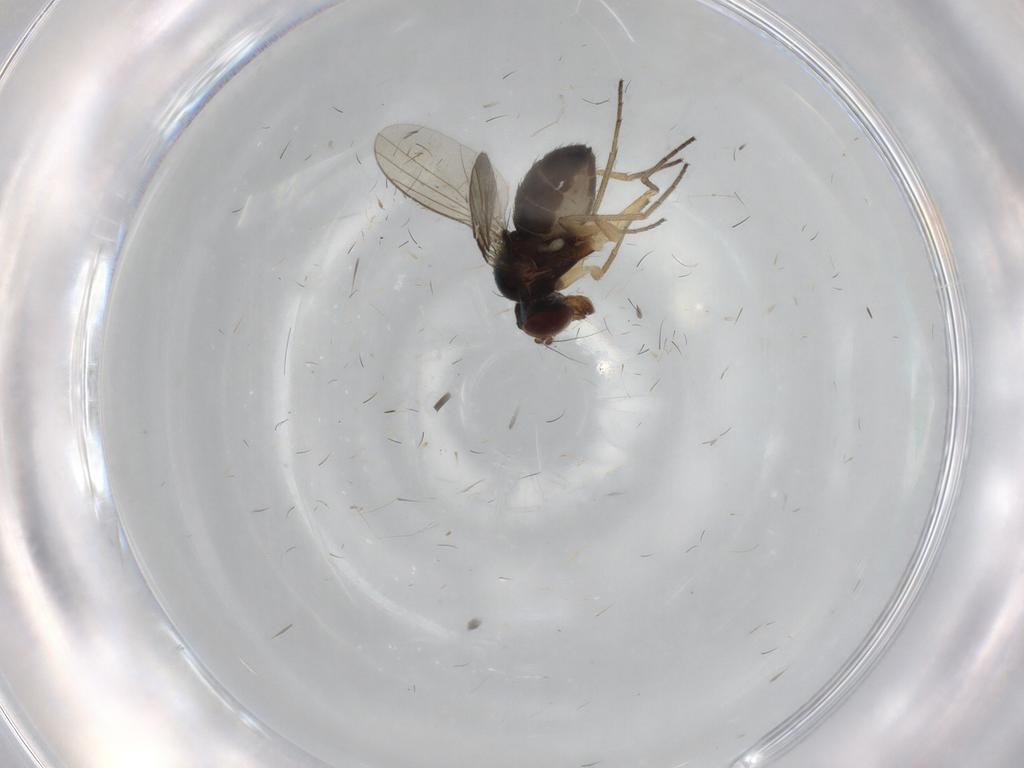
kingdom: Animalia
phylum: Arthropoda
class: Insecta
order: Diptera
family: Dolichopodidae
